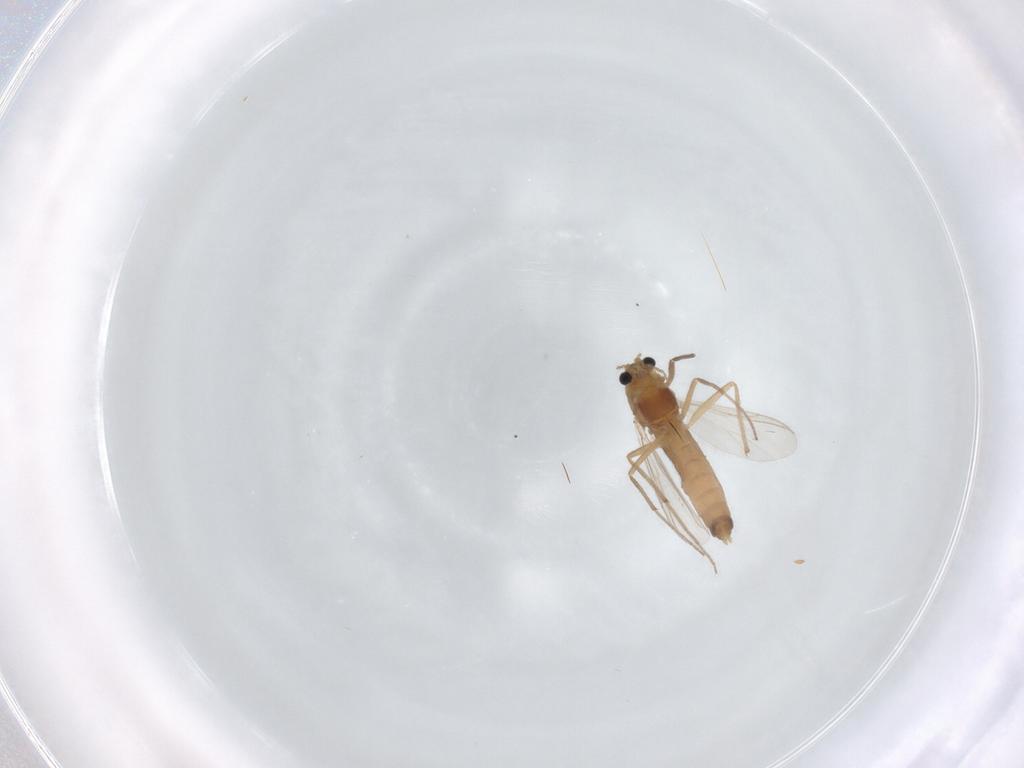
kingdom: Animalia
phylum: Arthropoda
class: Insecta
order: Diptera
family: Chironomidae
